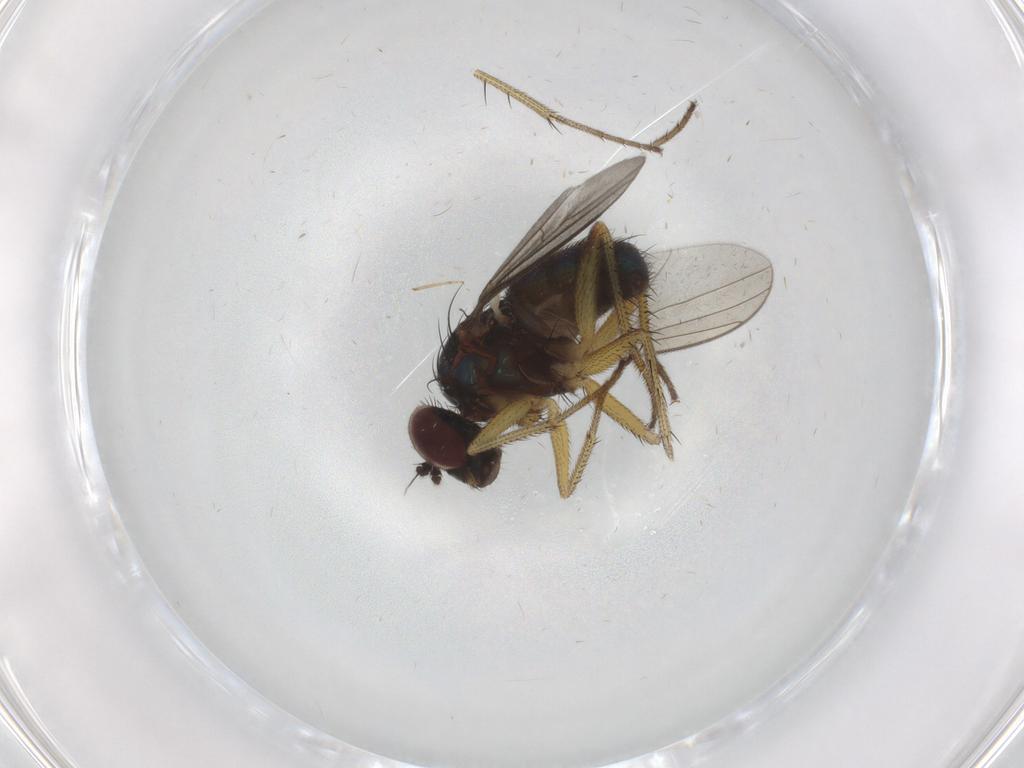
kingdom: Animalia
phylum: Arthropoda
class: Insecta
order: Diptera
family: Dolichopodidae
